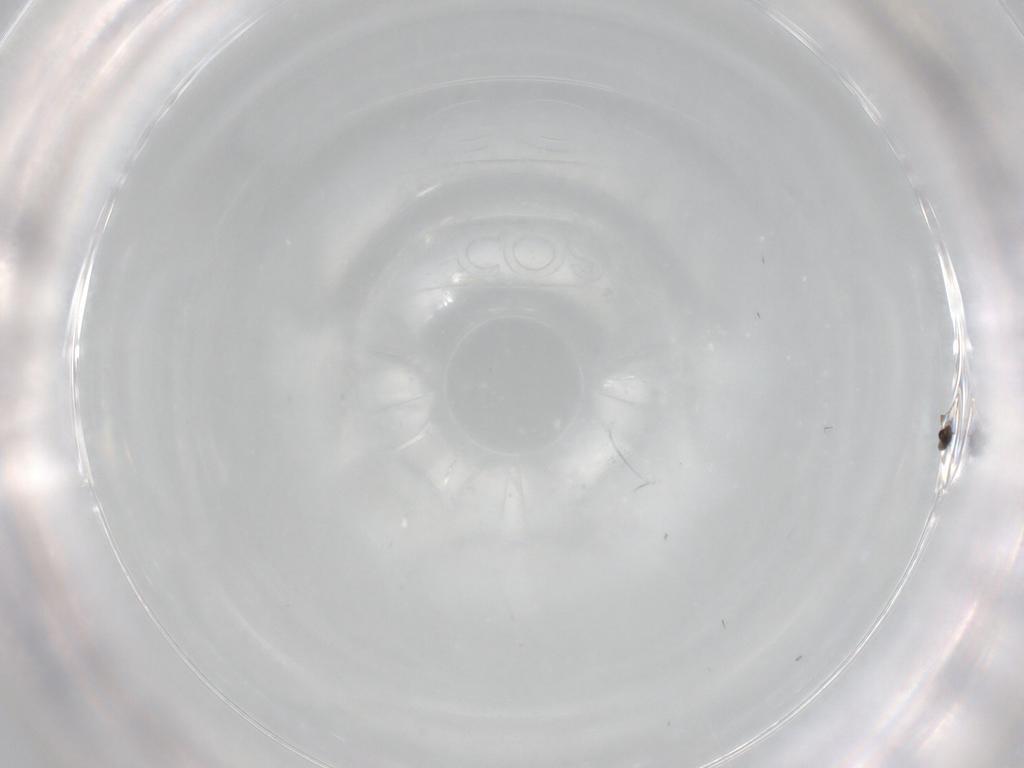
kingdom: Animalia
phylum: Arthropoda
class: Insecta
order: Hymenoptera
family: Mymaridae
